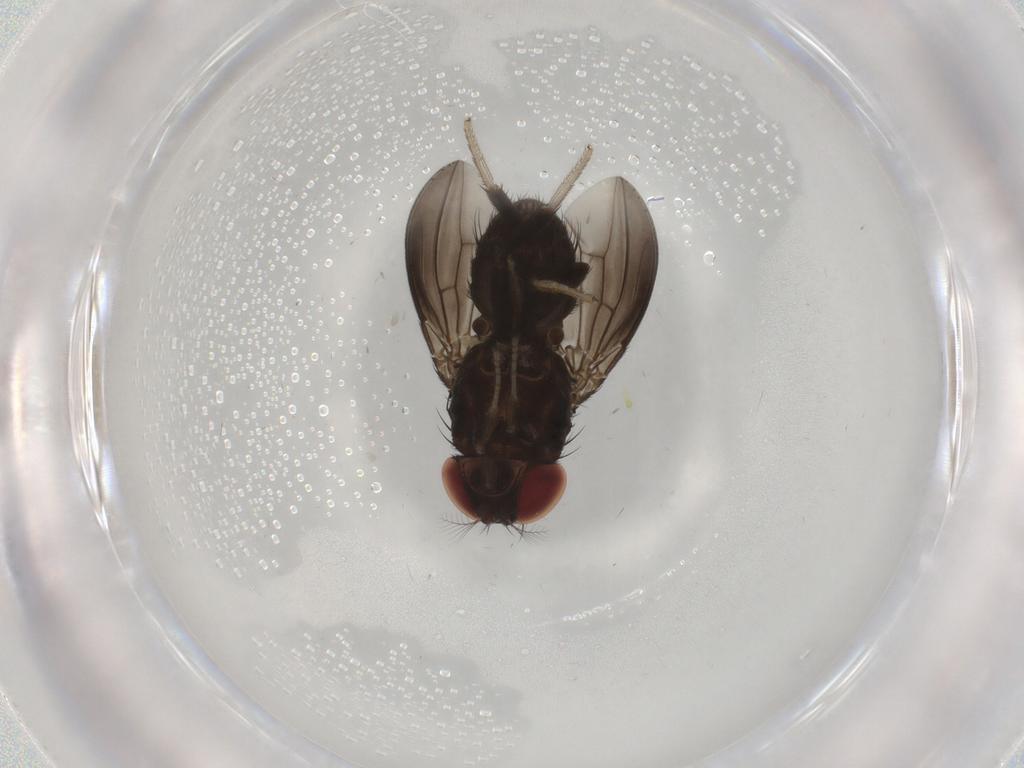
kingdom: Animalia
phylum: Arthropoda
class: Insecta
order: Diptera
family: Drosophilidae
